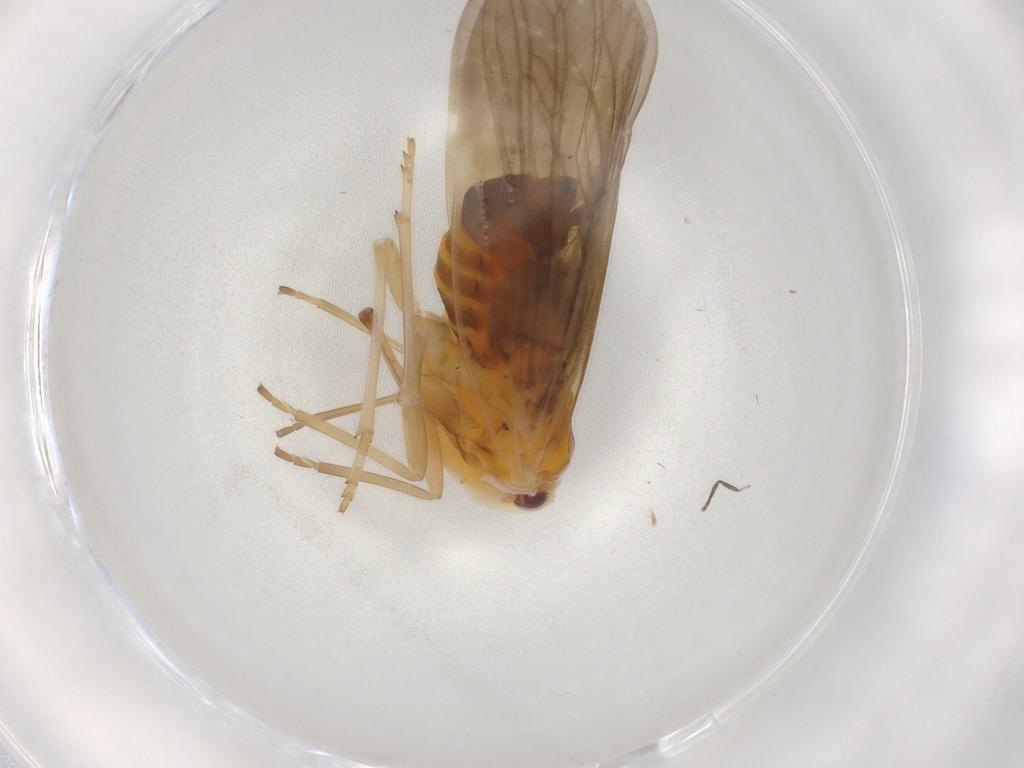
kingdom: Animalia
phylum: Arthropoda
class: Insecta
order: Hemiptera
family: Derbidae
